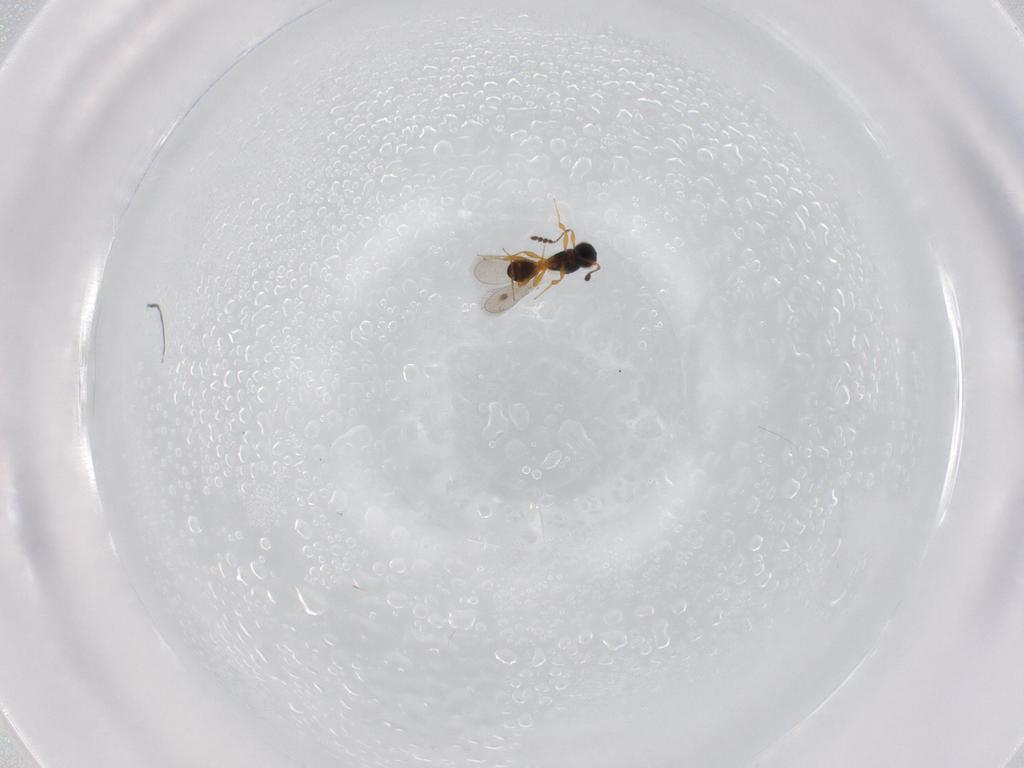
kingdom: Animalia
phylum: Arthropoda
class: Insecta
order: Hymenoptera
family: Platygastridae
